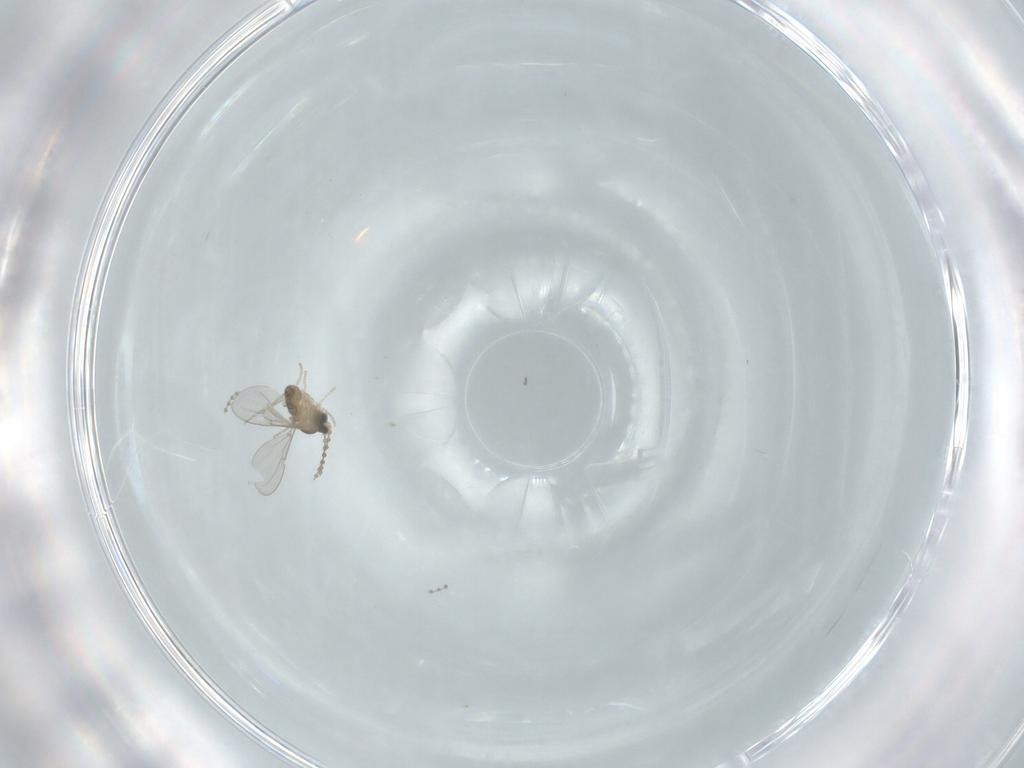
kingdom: Animalia
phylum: Arthropoda
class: Insecta
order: Diptera
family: Cecidomyiidae
